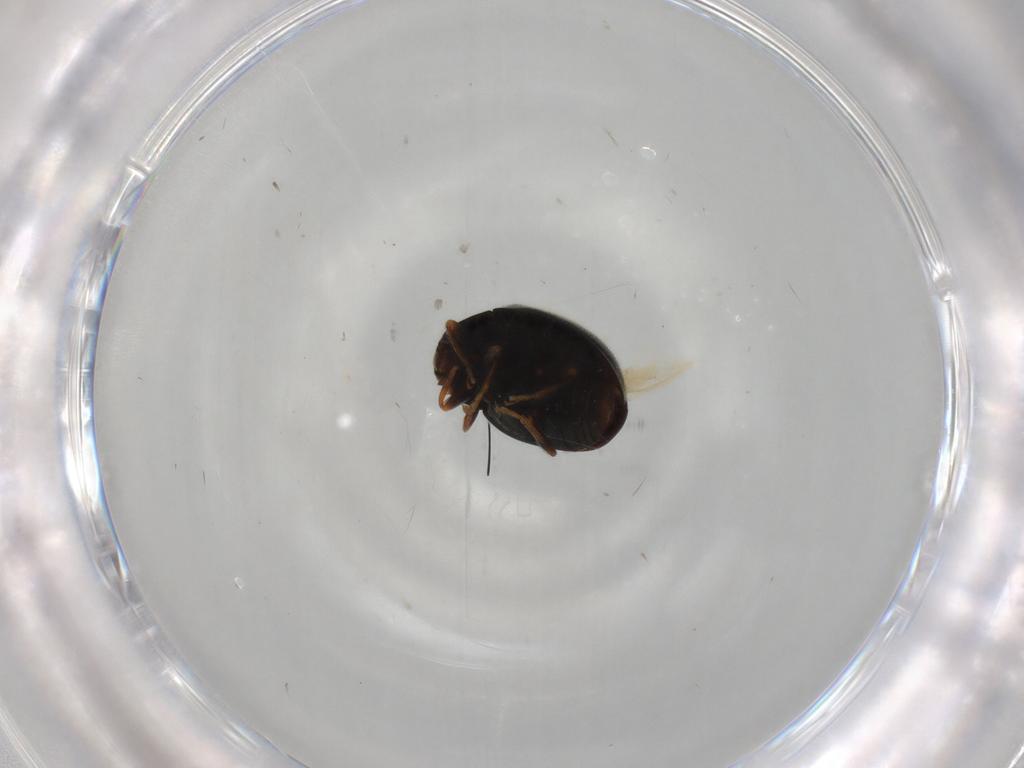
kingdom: Animalia
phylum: Arthropoda
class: Insecta
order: Coleoptera
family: Coccinellidae
